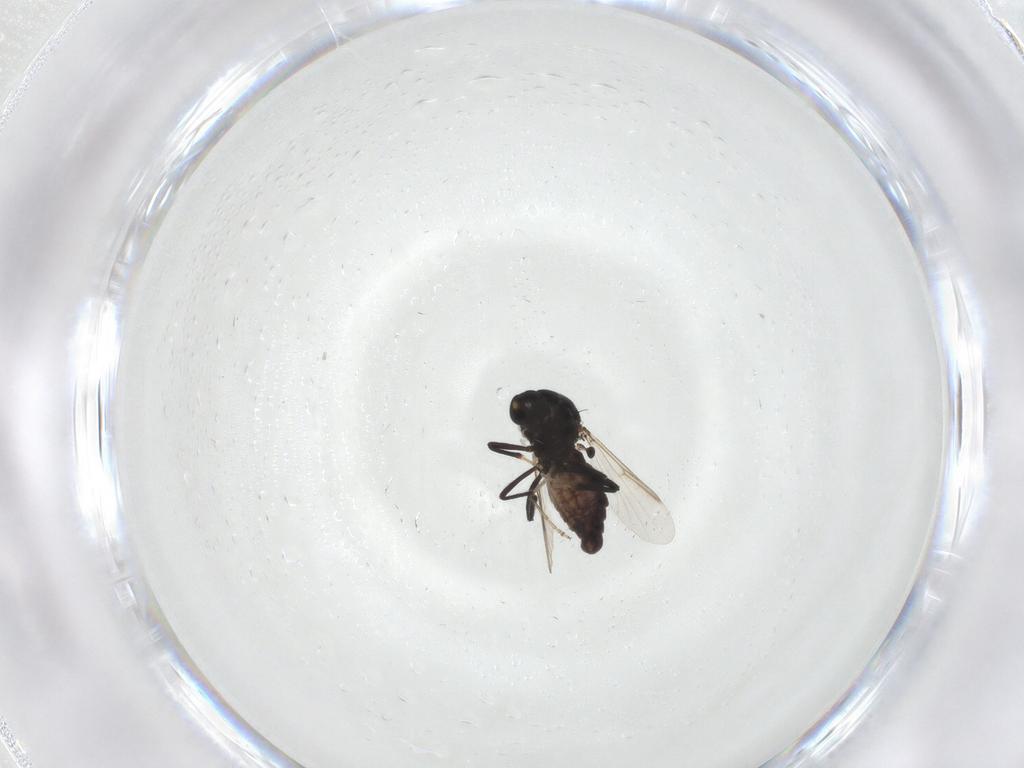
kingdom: Animalia
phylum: Arthropoda
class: Insecta
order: Diptera
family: Ceratopogonidae
